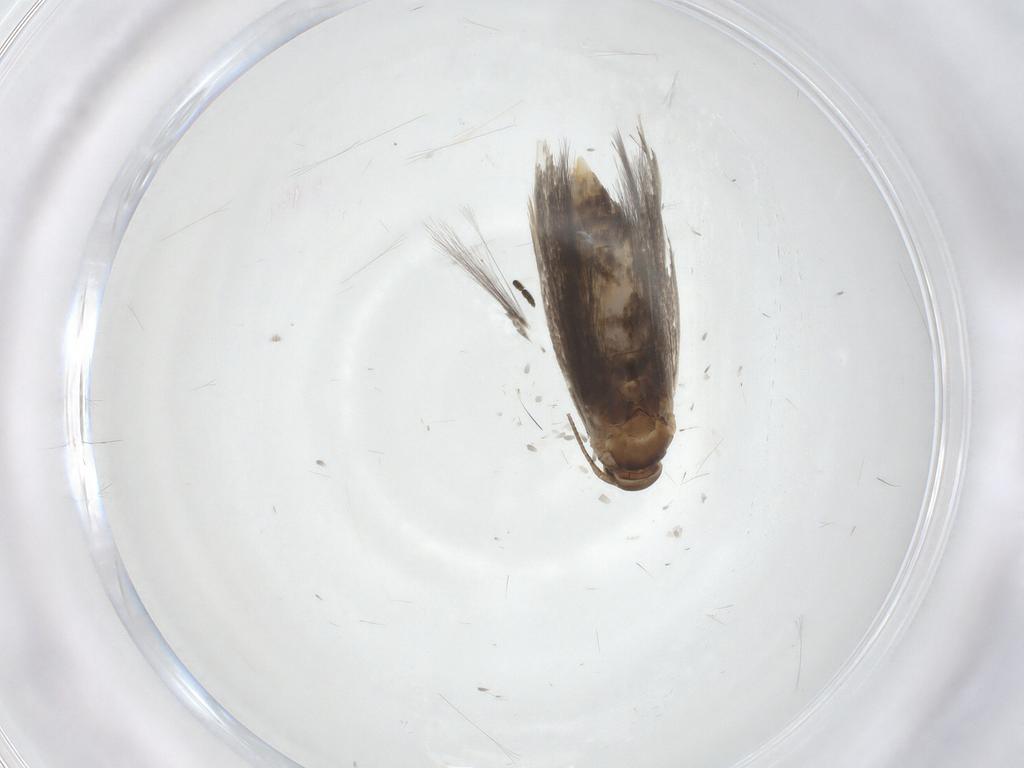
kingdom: Animalia
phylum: Arthropoda
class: Insecta
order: Lepidoptera
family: Elachistidae
